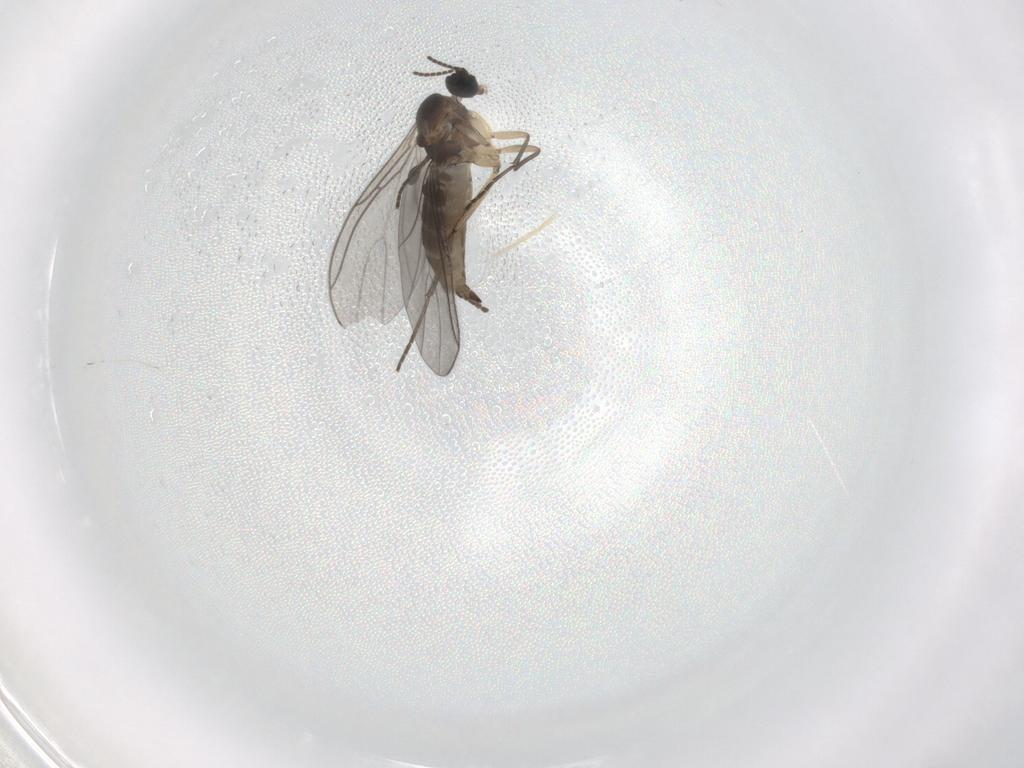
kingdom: Animalia
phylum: Arthropoda
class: Insecta
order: Diptera
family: Sciaridae
